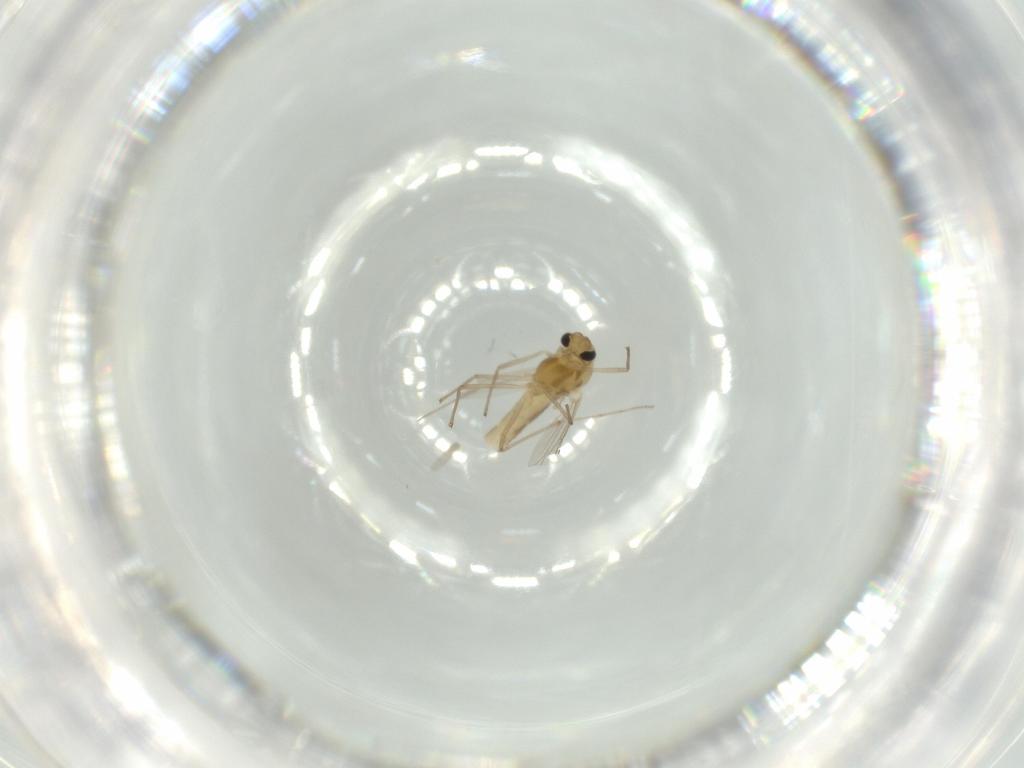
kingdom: Animalia
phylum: Arthropoda
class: Insecta
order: Diptera
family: Chironomidae
